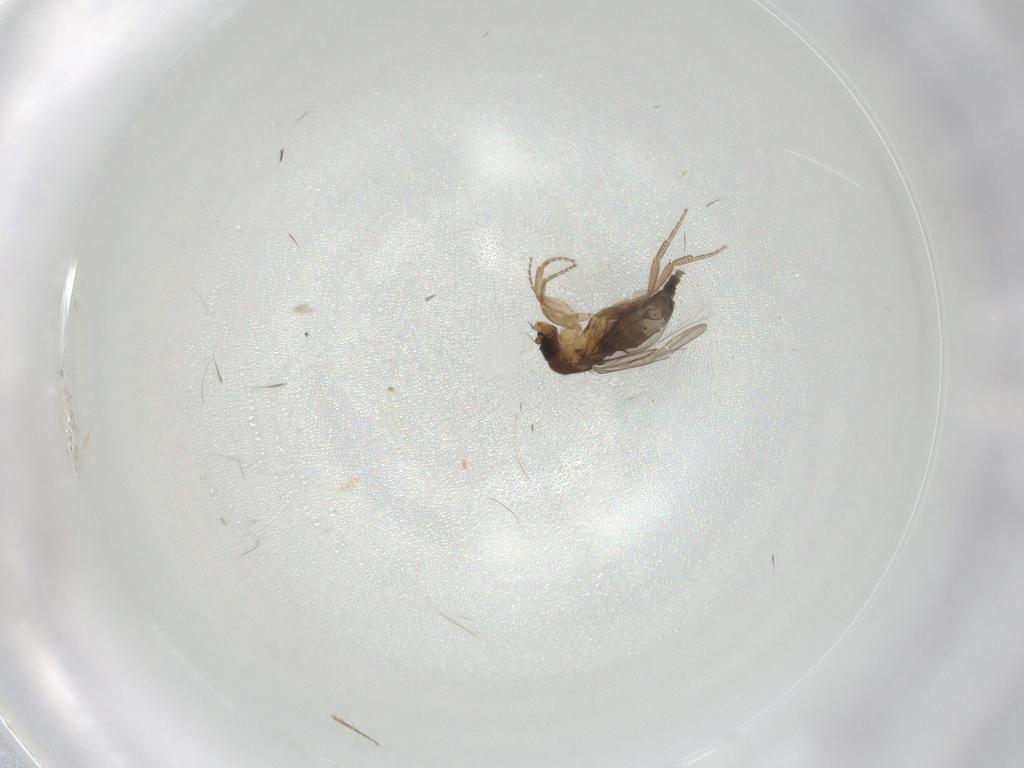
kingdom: Animalia
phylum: Arthropoda
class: Insecta
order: Diptera
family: Phoridae
